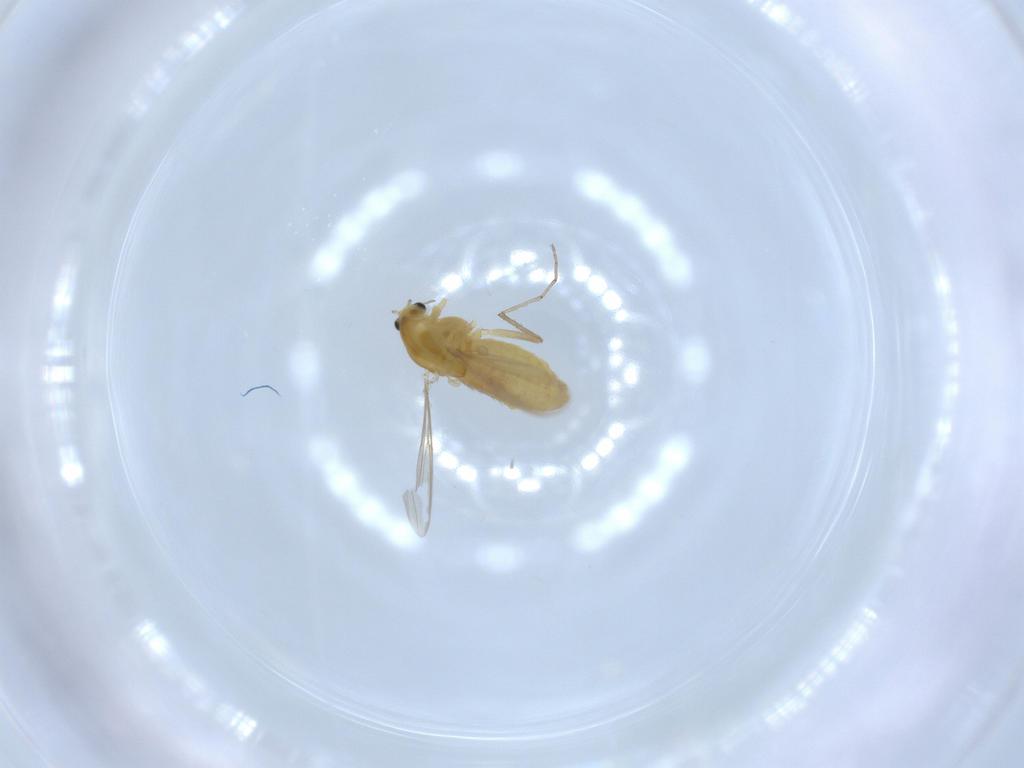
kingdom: Animalia
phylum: Arthropoda
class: Insecta
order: Diptera
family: Chironomidae
